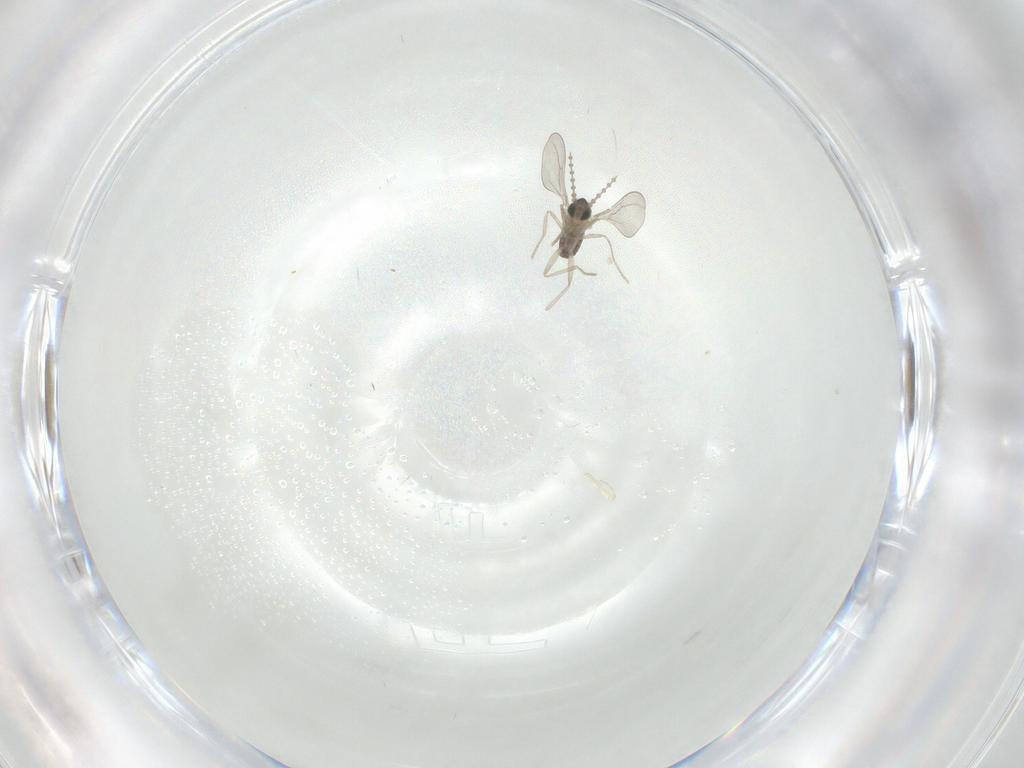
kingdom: Animalia
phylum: Arthropoda
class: Insecta
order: Diptera
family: Cecidomyiidae
